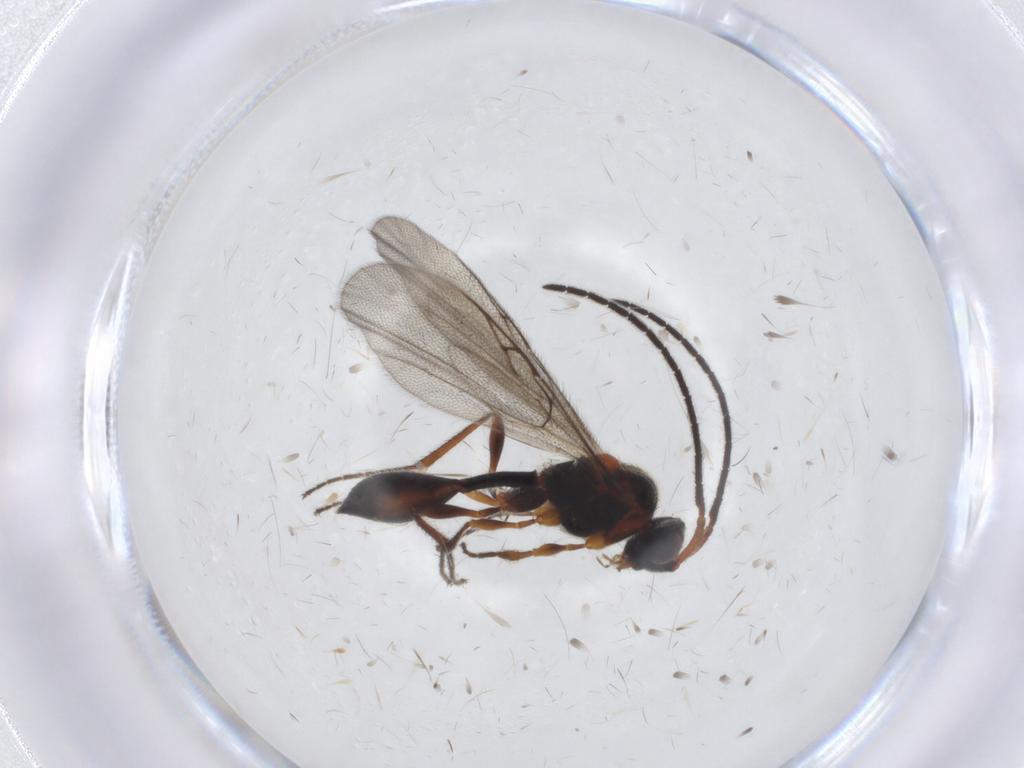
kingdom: Animalia
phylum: Arthropoda
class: Insecta
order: Hymenoptera
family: Diapriidae
